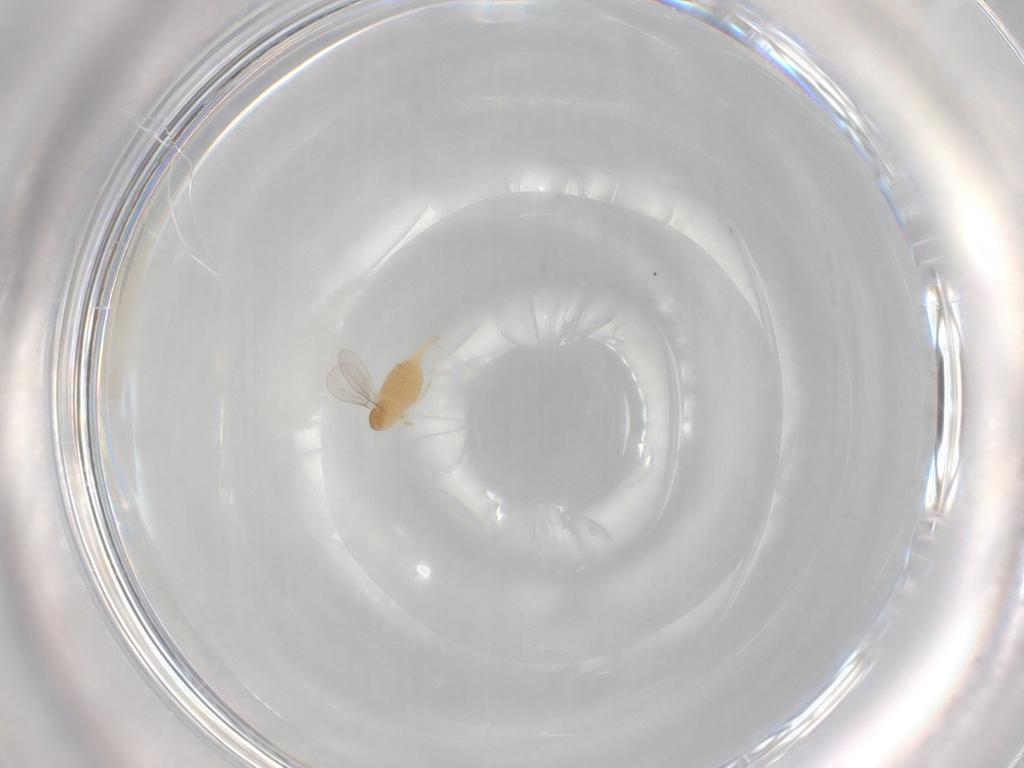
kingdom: Animalia
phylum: Arthropoda
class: Insecta
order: Diptera
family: Cecidomyiidae
